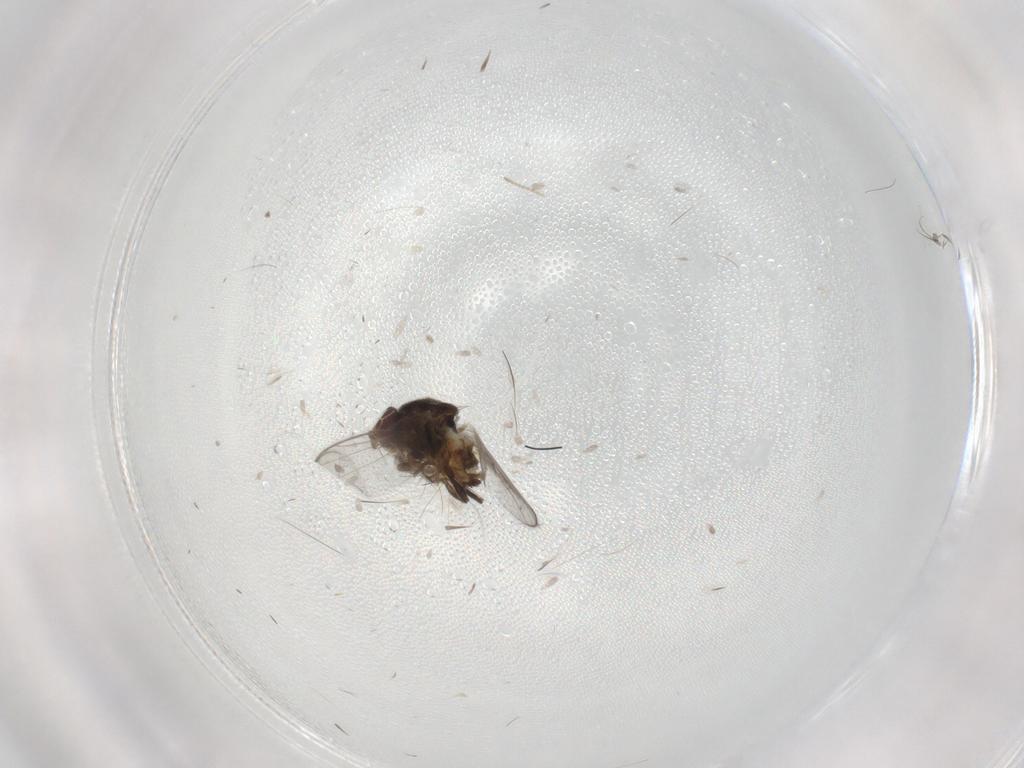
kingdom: Animalia
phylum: Arthropoda
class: Insecta
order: Diptera
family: Chloropidae
